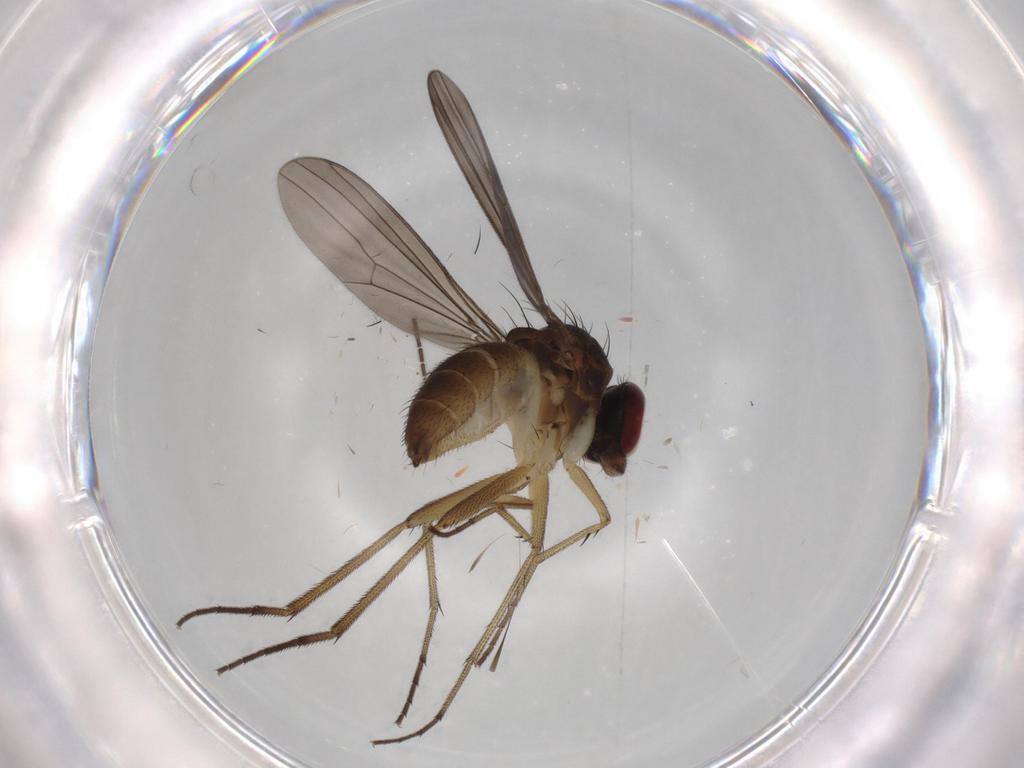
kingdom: Animalia
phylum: Arthropoda
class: Insecta
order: Diptera
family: Dolichopodidae
